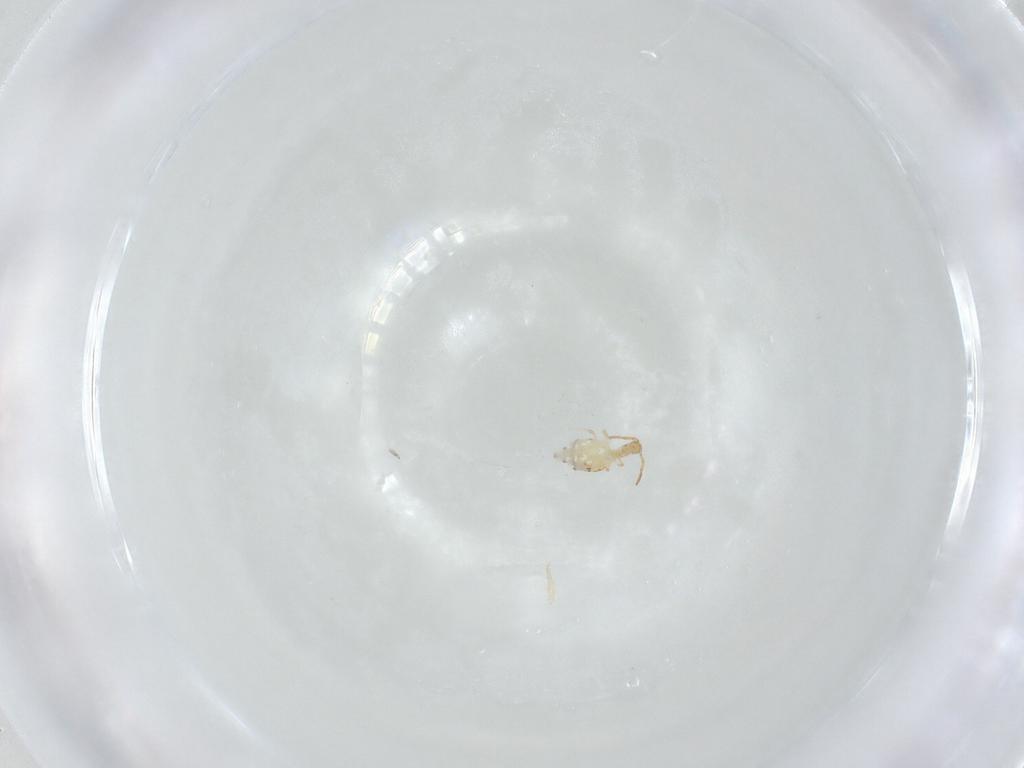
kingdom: Animalia
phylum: Arthropoda
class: Collembola
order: Symphypleona
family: Bourletiellidae
